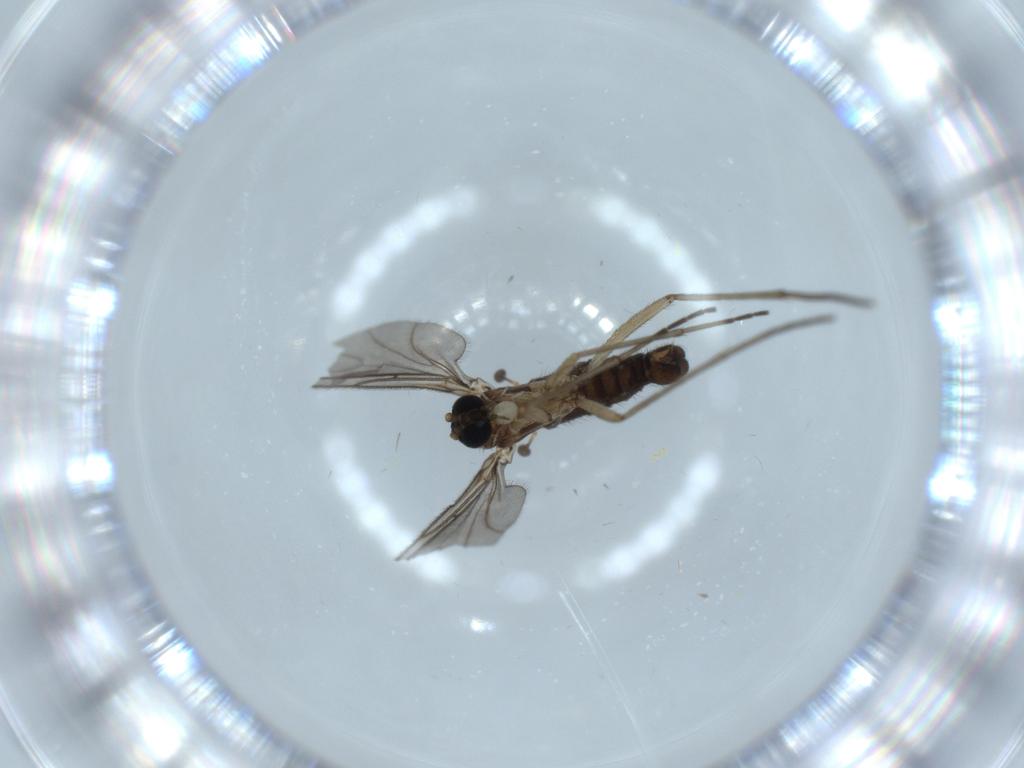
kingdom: Animalia
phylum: Arthropoda
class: Insecta
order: Diptera
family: Sciaridae
